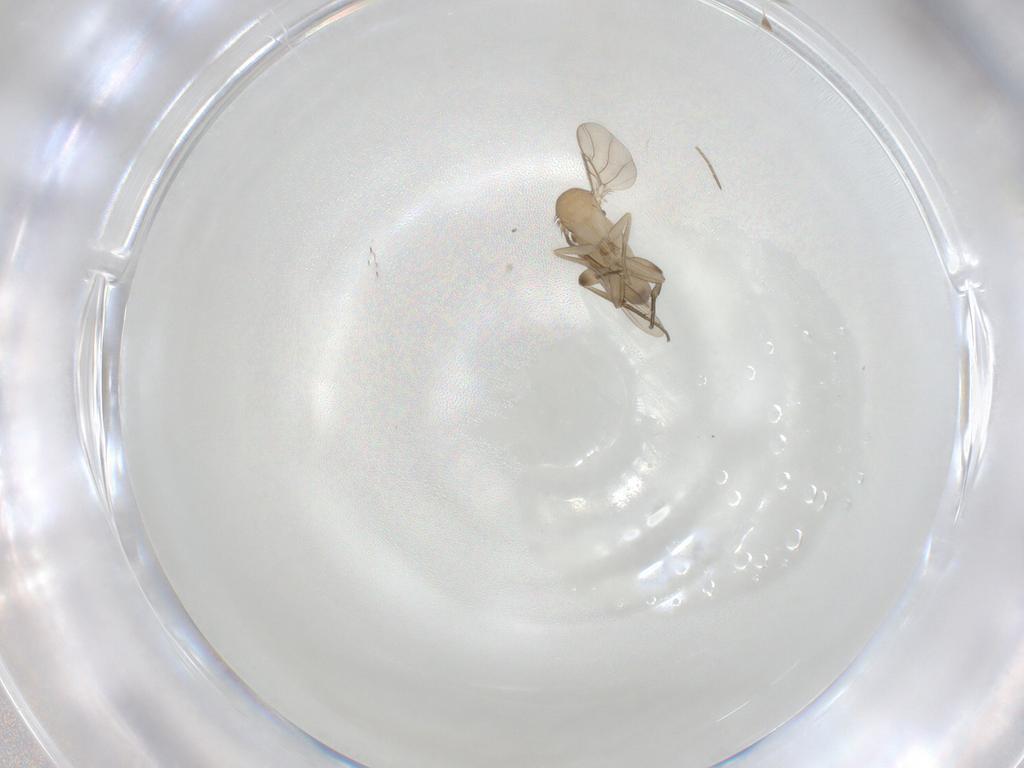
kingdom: Animalia
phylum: Arthropoda
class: Insecta
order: Diptera
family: Phoridae
